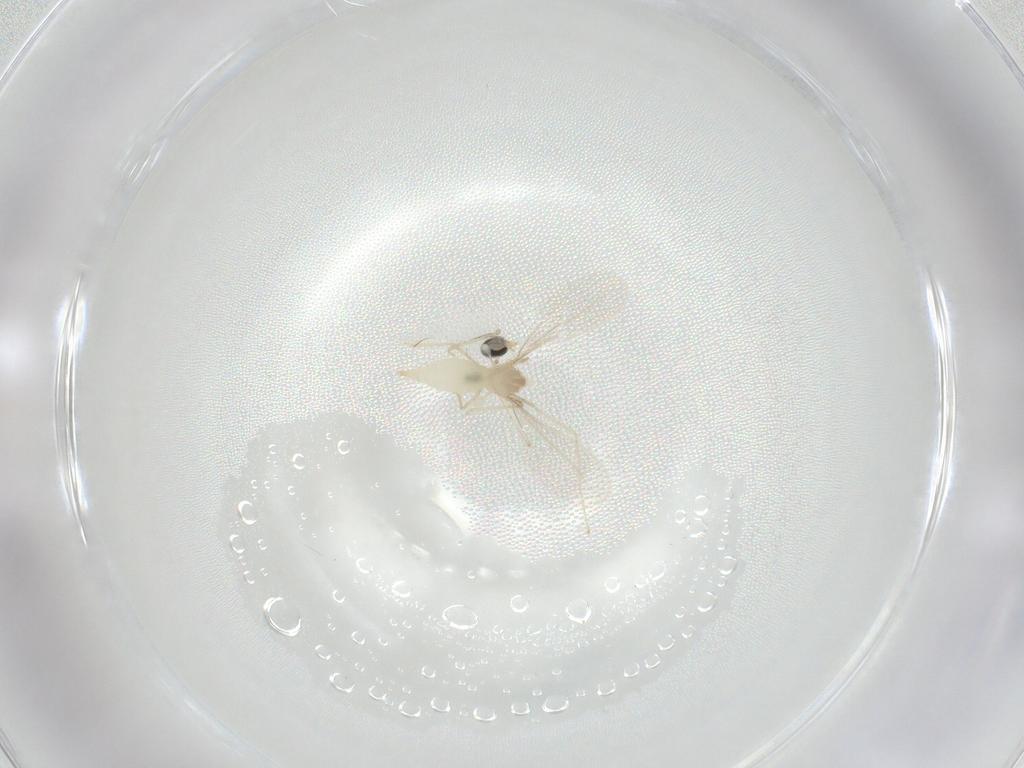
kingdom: Animalia
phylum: Arthropoda
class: Insecta
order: Diptera
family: Cecidomyiidae
